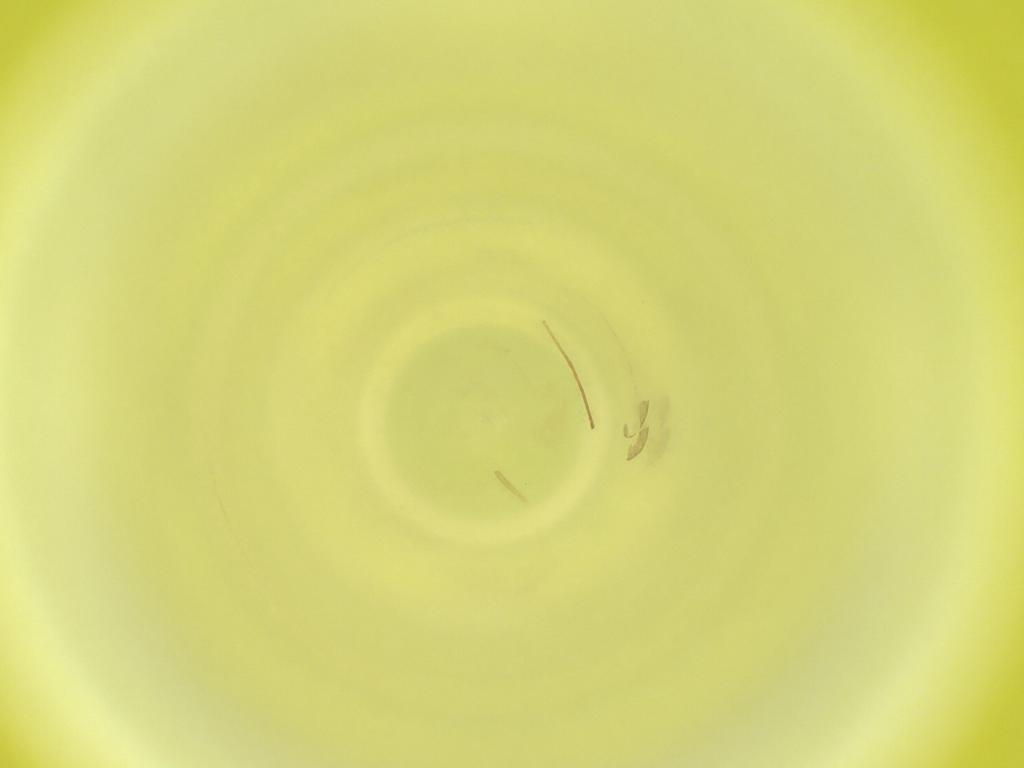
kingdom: Animalia
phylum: Arthropoda
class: Insecta
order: Diptera
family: Cecidomyiidae
